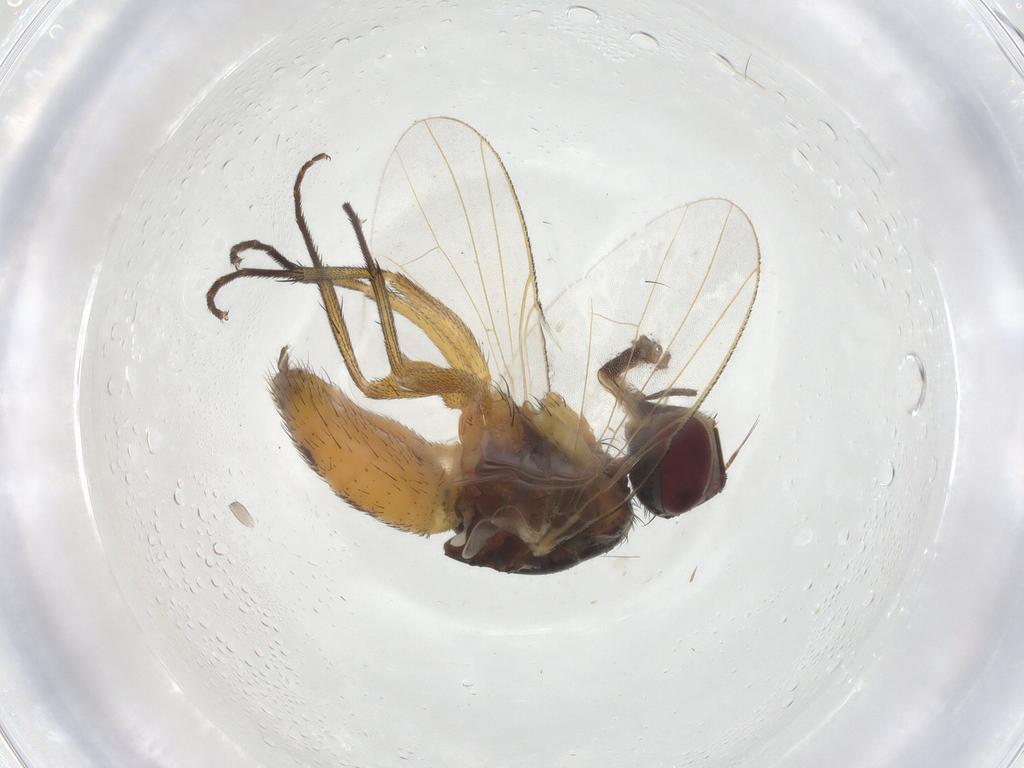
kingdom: Animalia
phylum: Arthropoda
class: Insecta
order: Diptera
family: Muscidae
